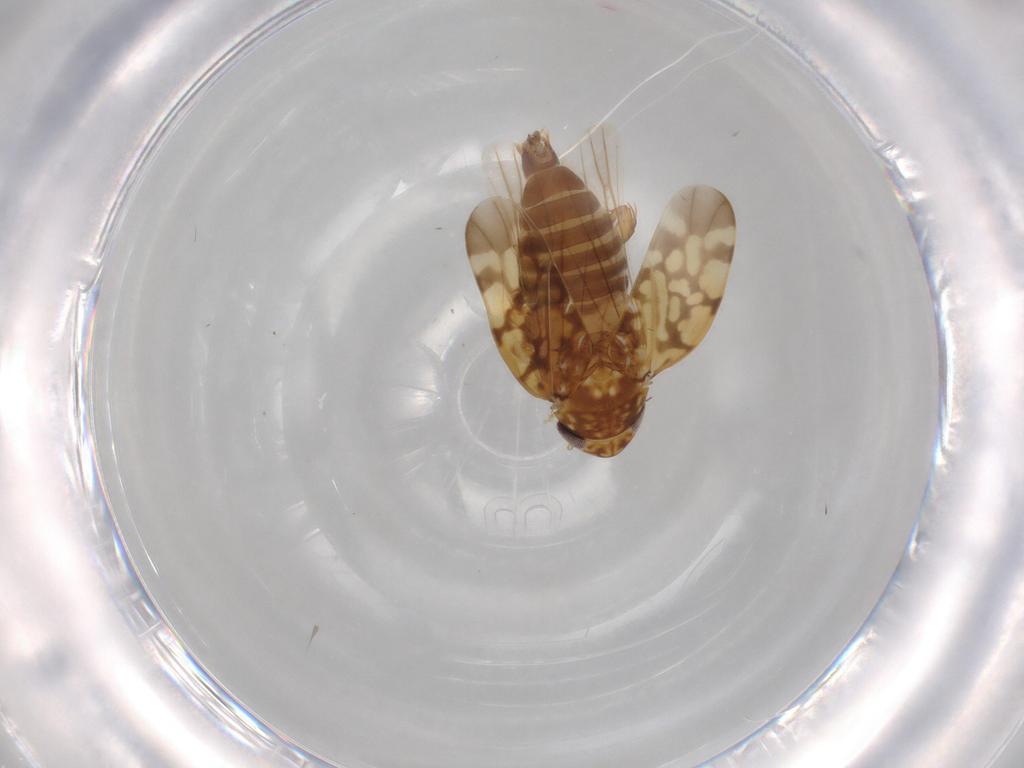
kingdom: Animalia
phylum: Arthropoda
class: Insecta
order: Hemiptera
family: Cicadellidae
